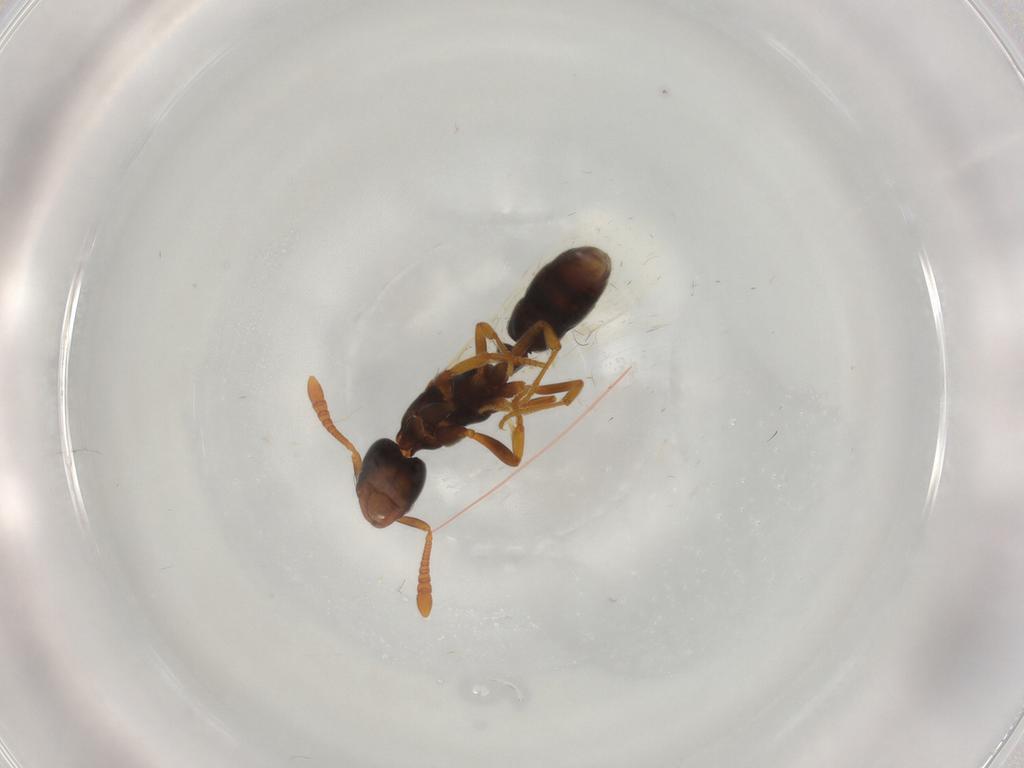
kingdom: Animalia
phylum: Arthropoda
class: Insecta
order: Hymenoptera
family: Formicidae
